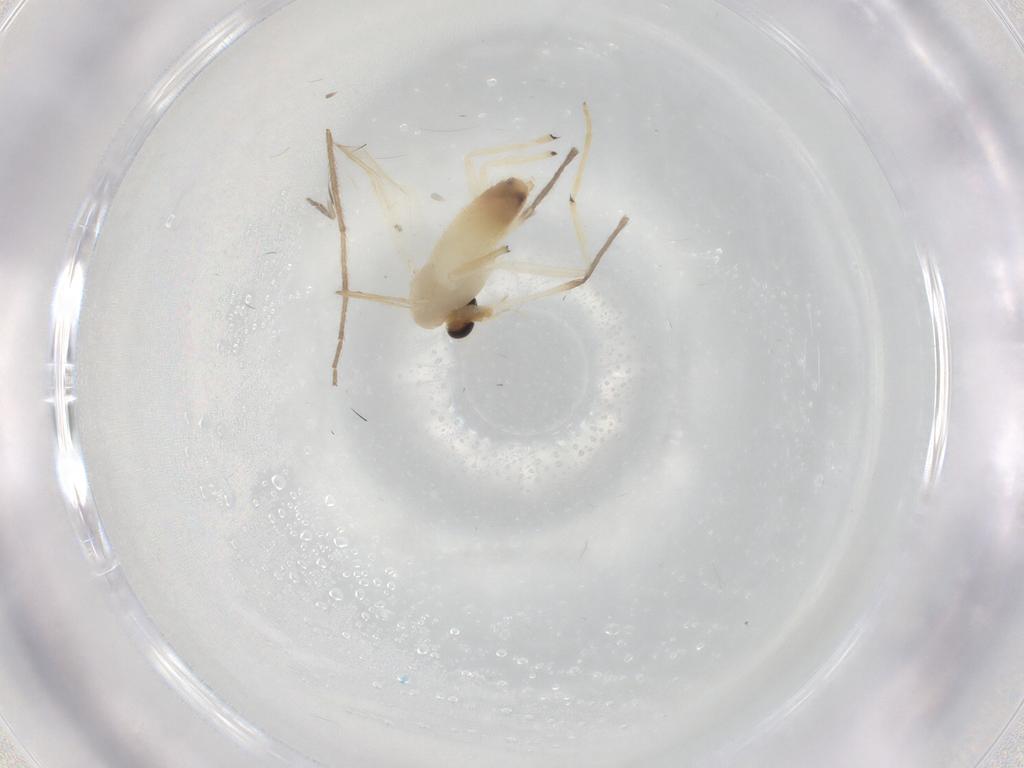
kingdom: Animalia
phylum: Arthropoda
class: Insecta
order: Diptera
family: Chironomidae
